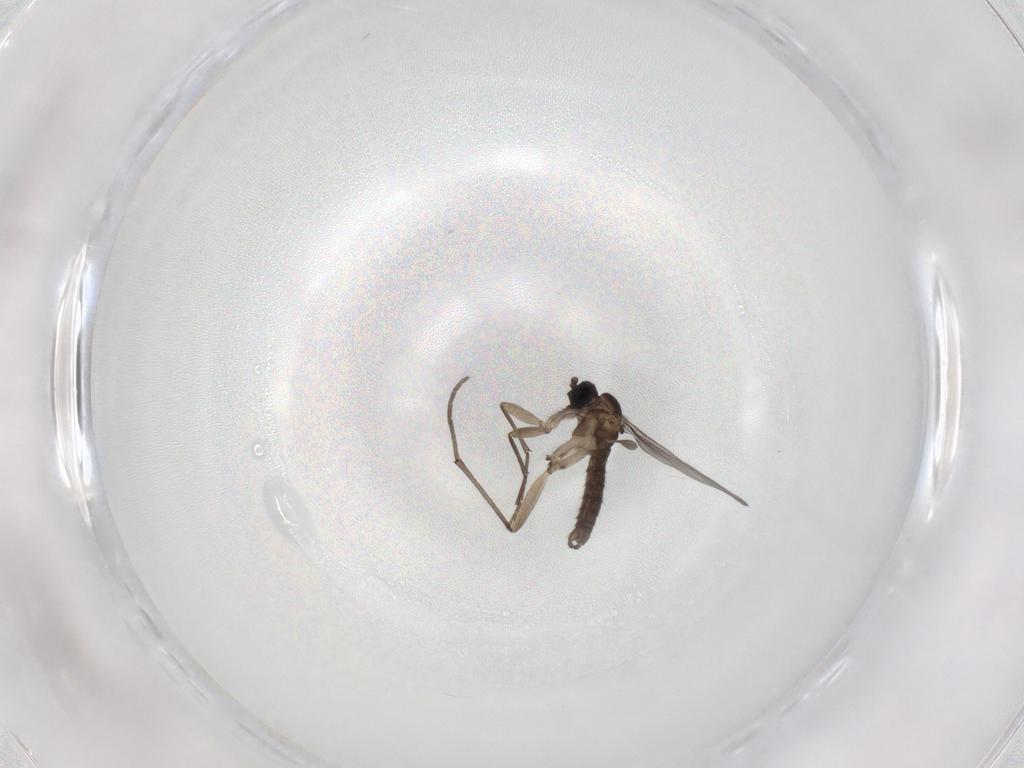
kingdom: Animalia
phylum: Arthropoda
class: Insecta
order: Diptera
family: Sciaridae
